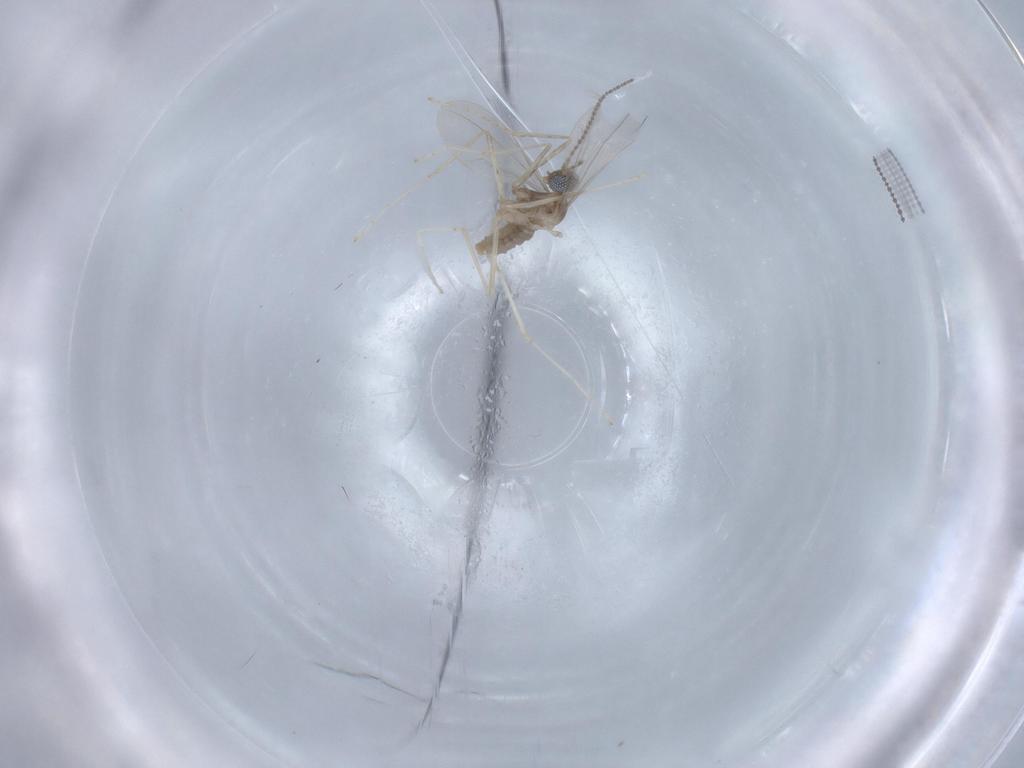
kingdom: Animalia
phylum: Arthropoda
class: Insecta
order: Diptera
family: Cecidomyiidae
